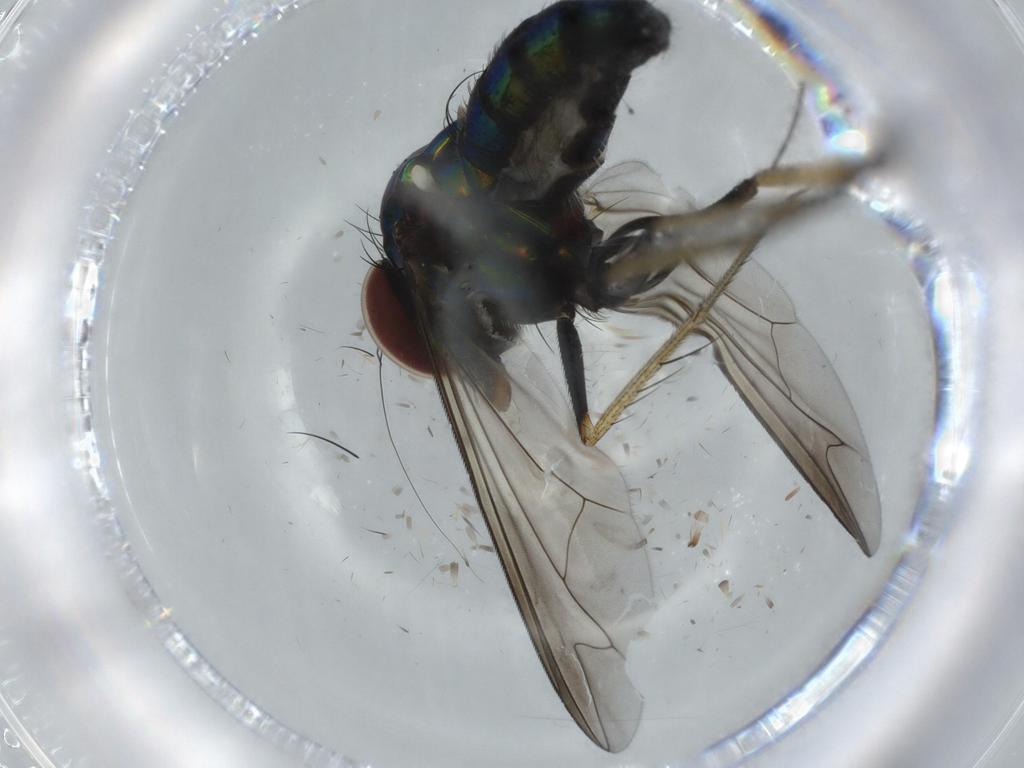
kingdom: Animalia
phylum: Arthropoda
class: Insecta
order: Diptera
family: Dolichopodidae
